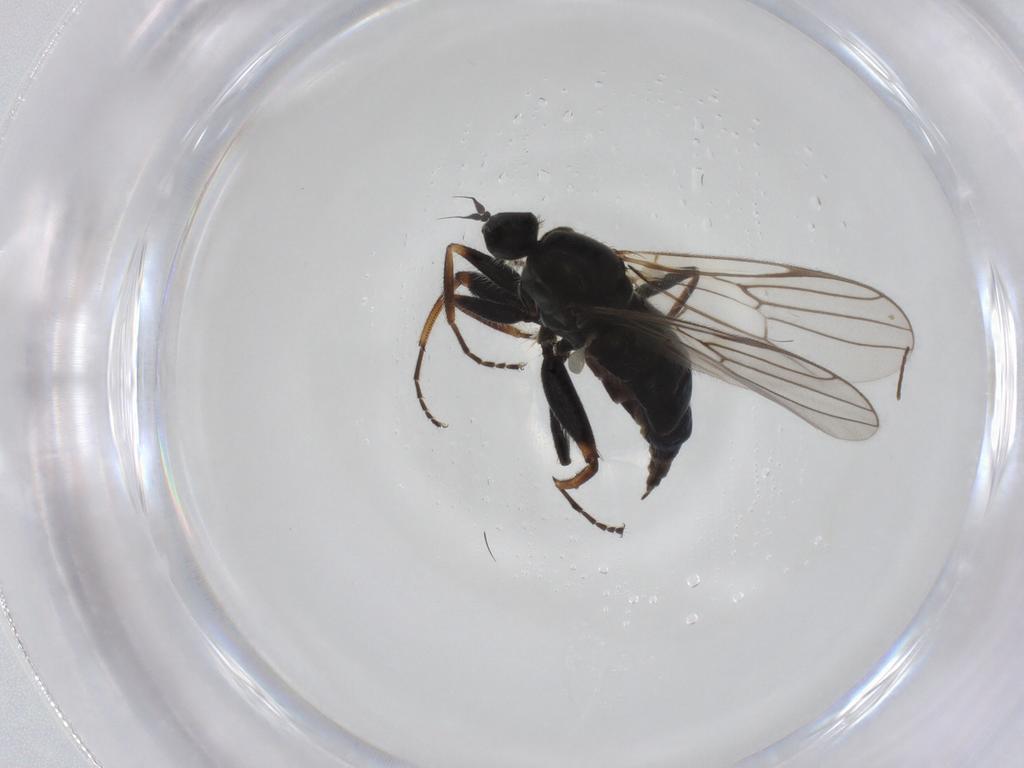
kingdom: Animalia
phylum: Arthropoda
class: Insecta
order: Diptera
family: Hybotidae
